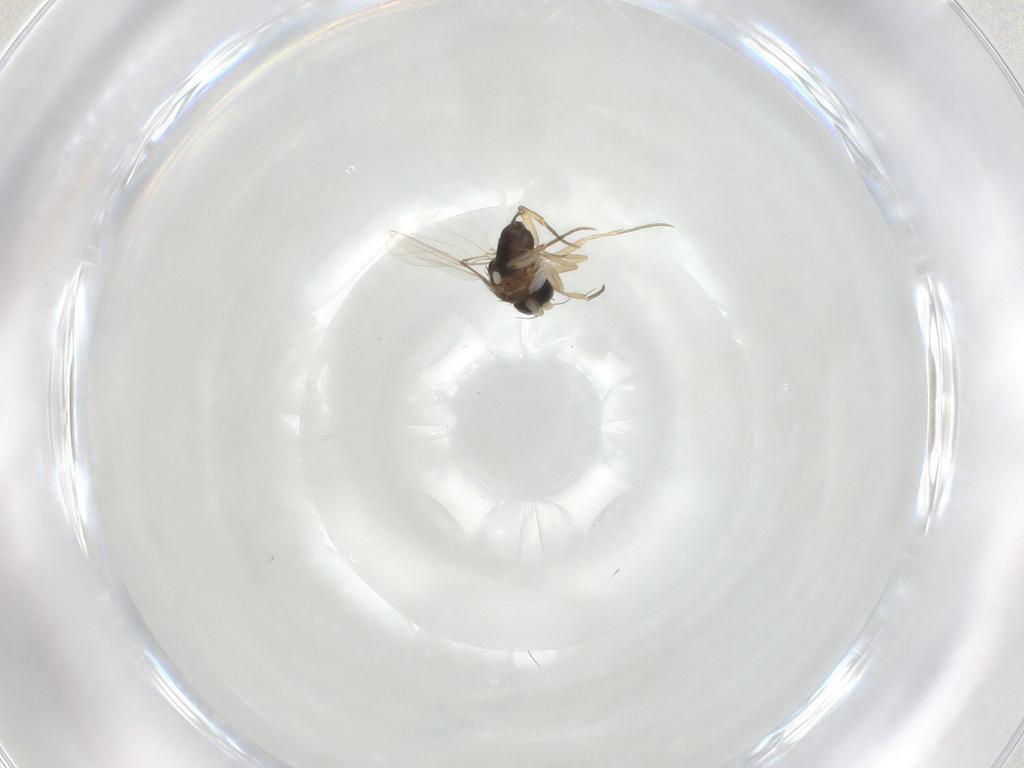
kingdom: Animalia
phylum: Arthropoda
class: Insecta
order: Diptera
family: Phoridae
